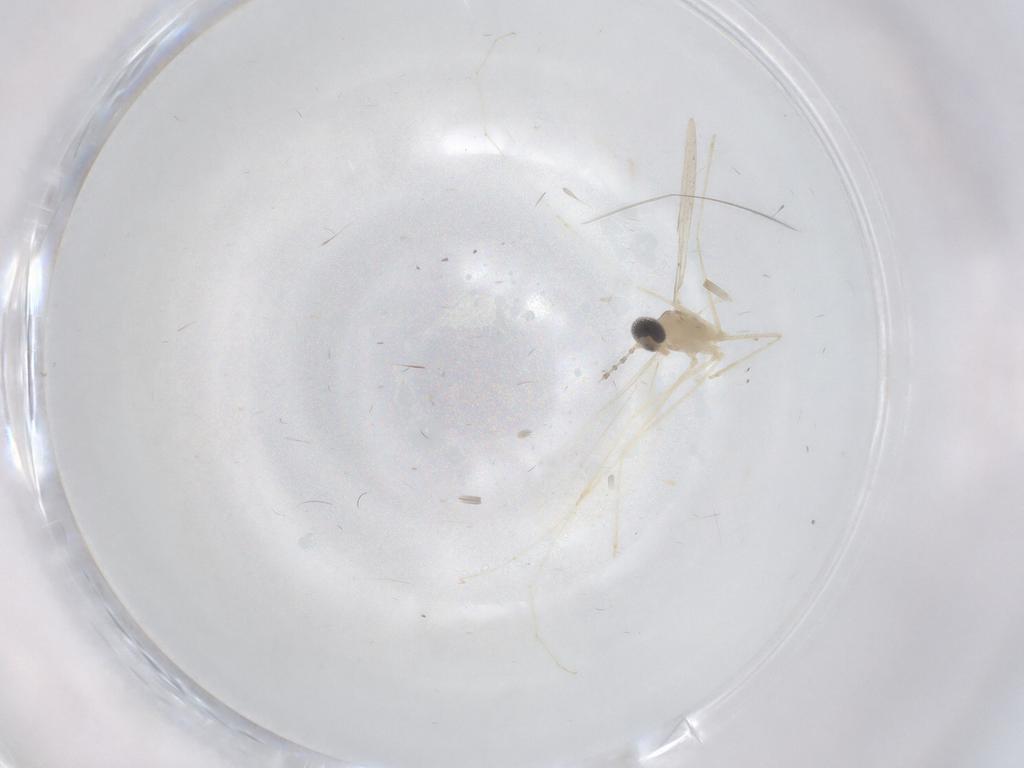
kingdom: Animalia
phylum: Arthropoda
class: Insecta
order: Diptera
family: Cecidomyiidae
